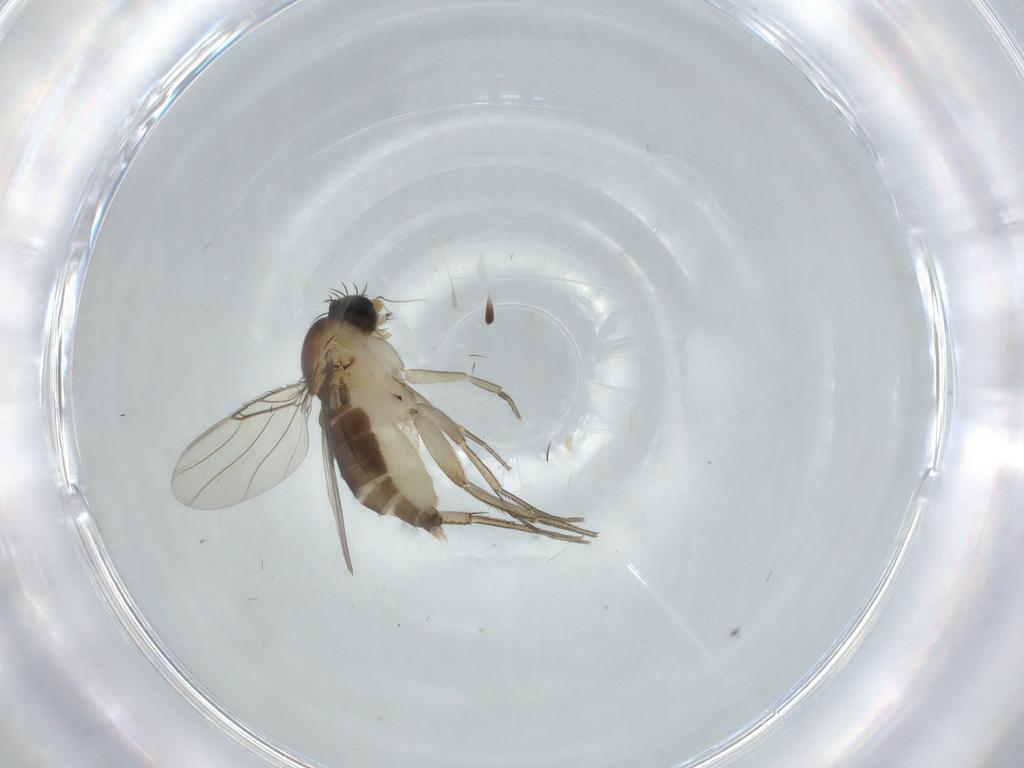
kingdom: Animalia
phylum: Arthropoda
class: Insecta
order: Diptera
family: Phoridae
